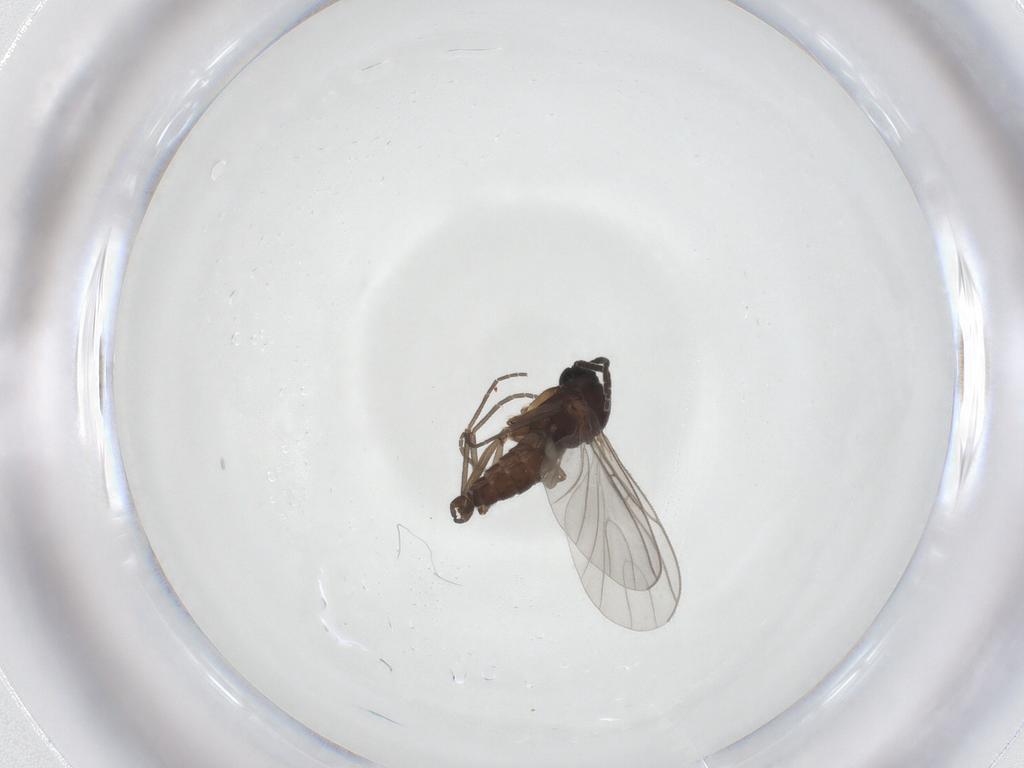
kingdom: Animalia
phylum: Arthropoda
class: Insecta
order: Diptera
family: Sciaridae
